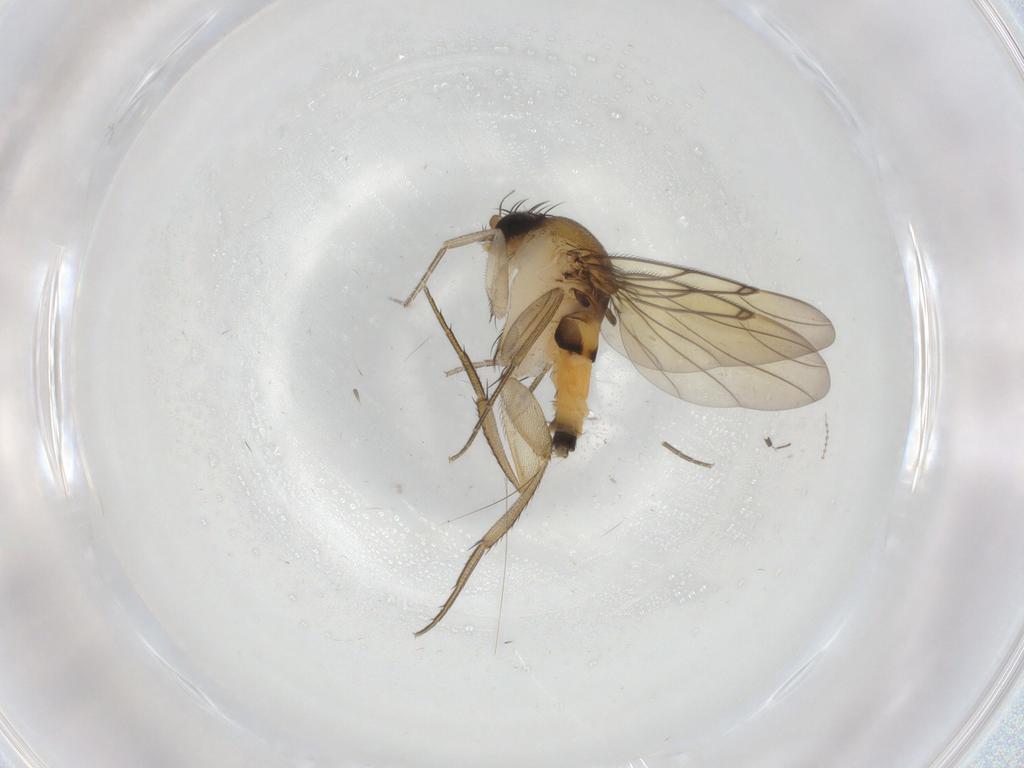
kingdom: Animalia
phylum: Arthropoda
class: Insecta
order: Diptera
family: Cecidomyiidae
